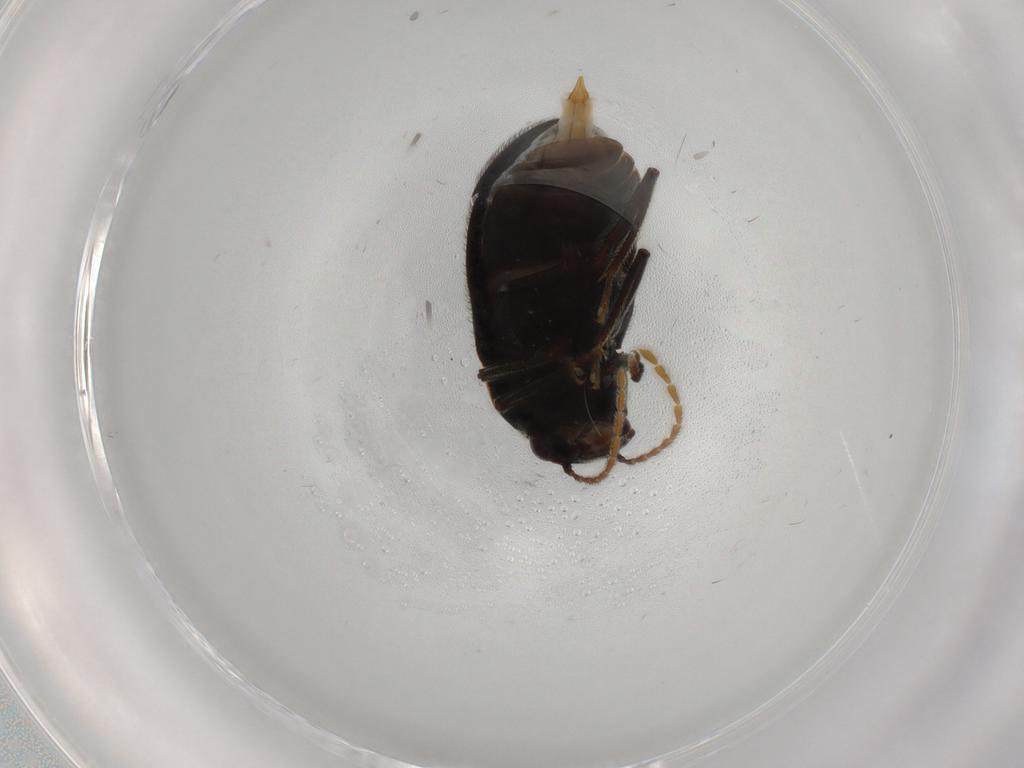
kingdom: Animalia
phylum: Arthropoda
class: Insecta
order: Coleoptera
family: Ptilodactylidae
